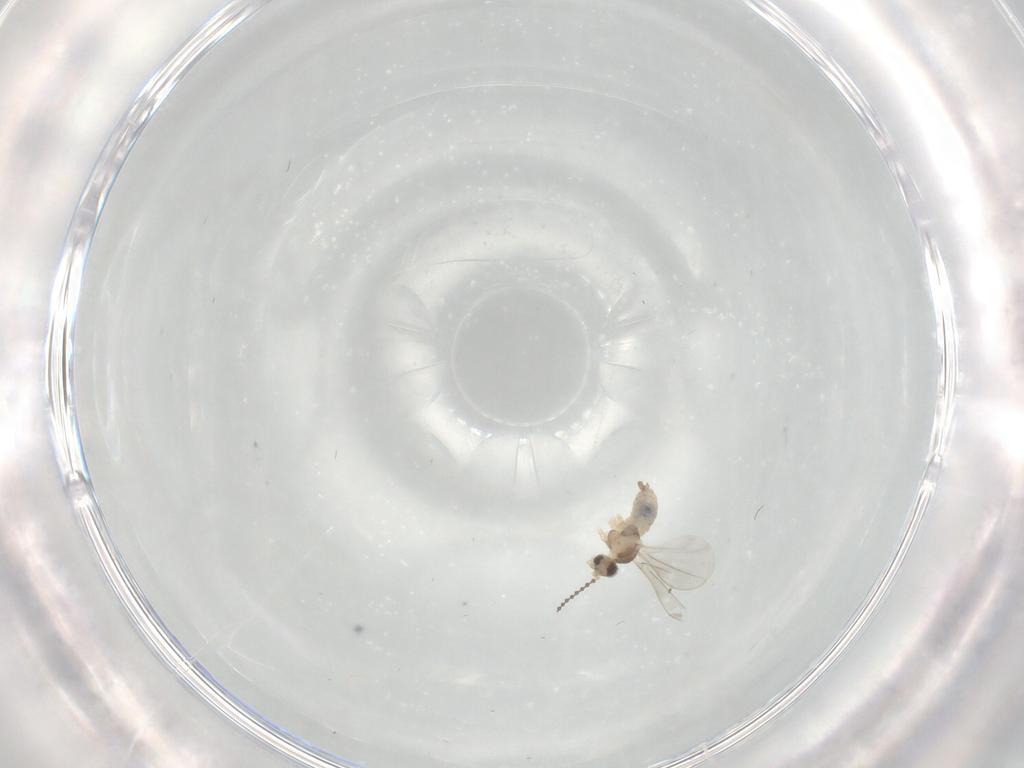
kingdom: Animalia
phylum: Arthropoda
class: Insecta
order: Diptera
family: Cecidomyiidae
